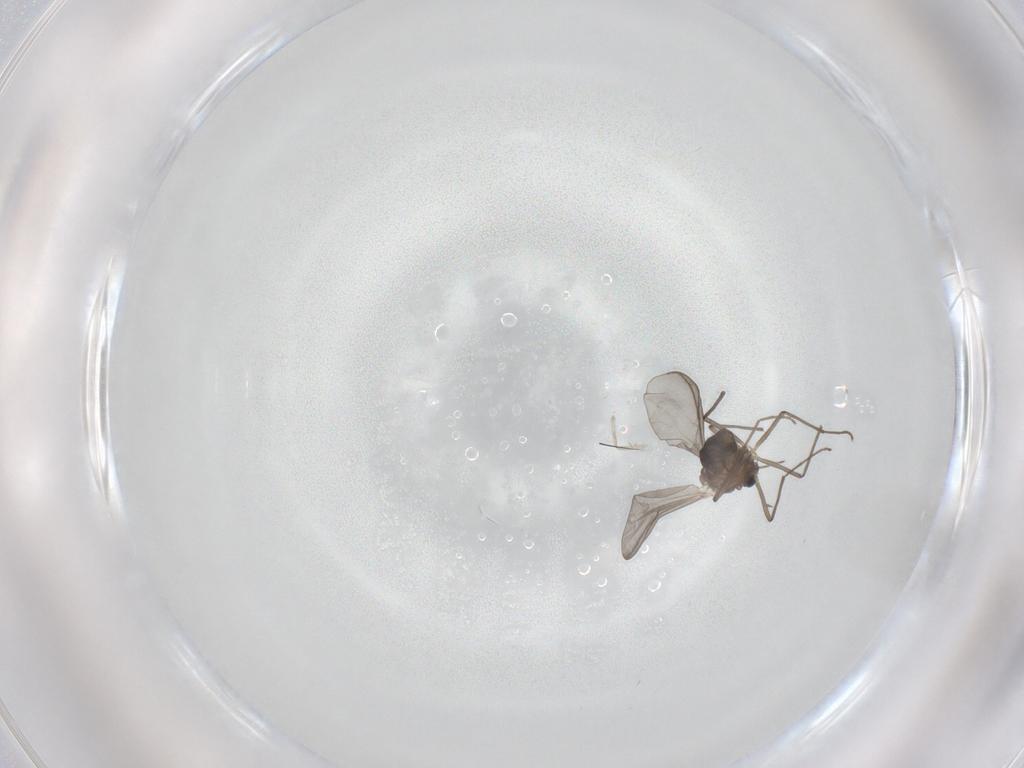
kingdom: Animalia
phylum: Arthropoda
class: Insecta
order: Diptera
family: Chironomidae
